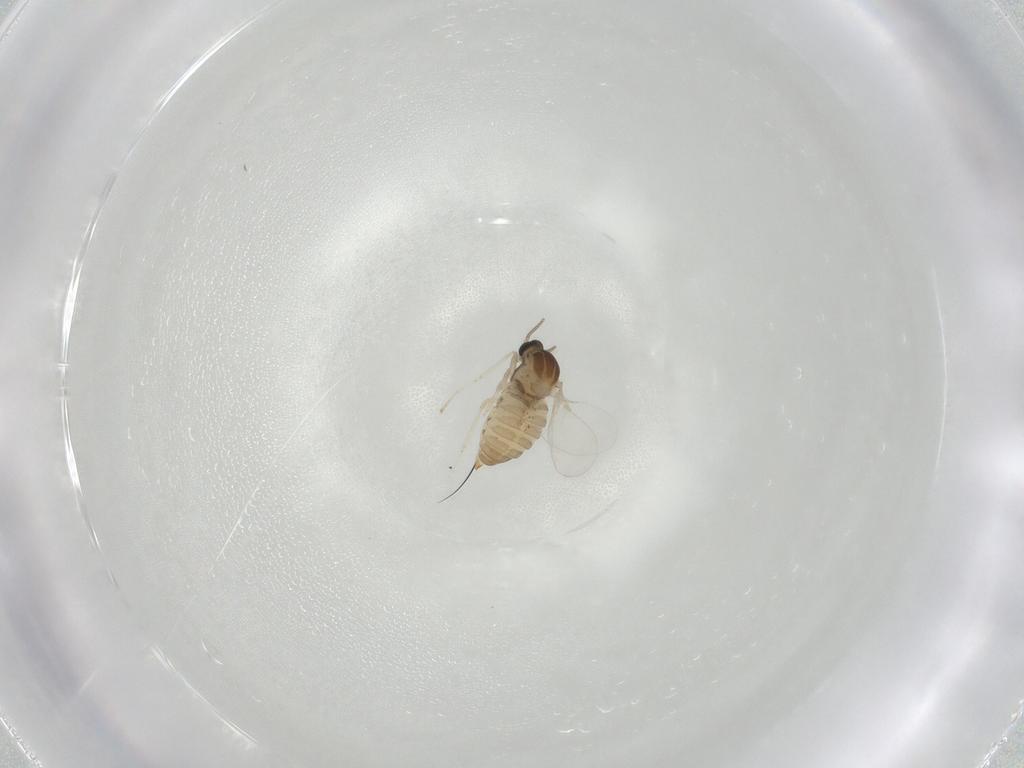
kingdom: Animalia
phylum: Arthropoda
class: Insecta
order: Diptera
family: Cecidomyiidae
